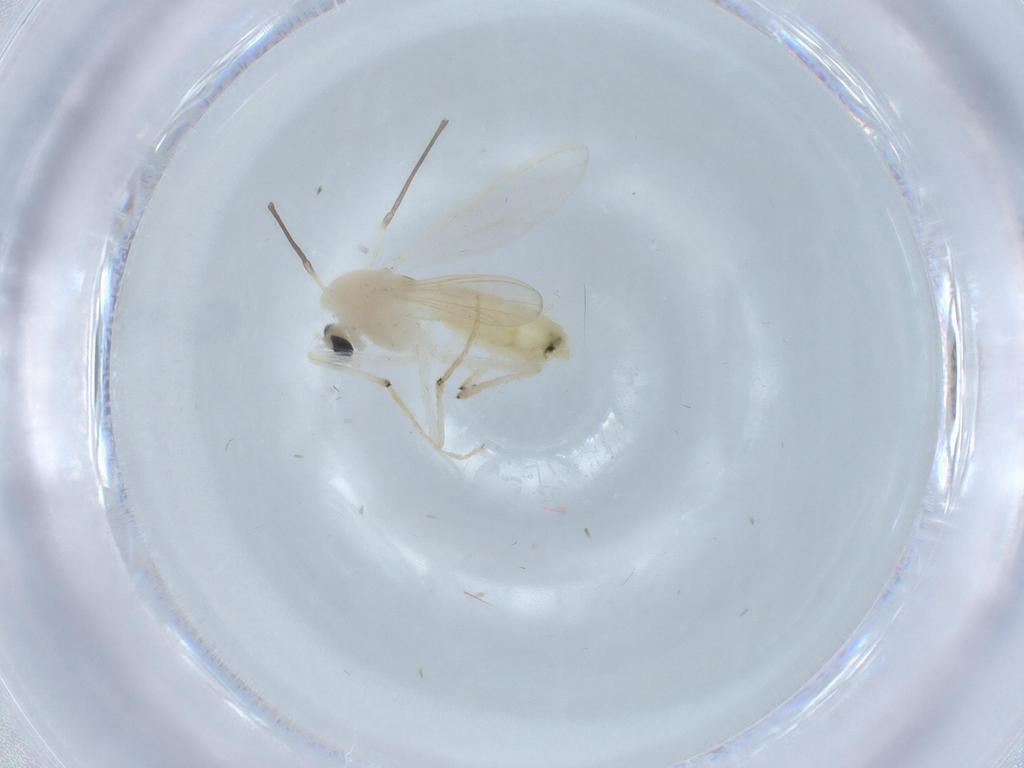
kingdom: Animalia
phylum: Arthropoda
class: Insecta
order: Diptera
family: Chironomidae
